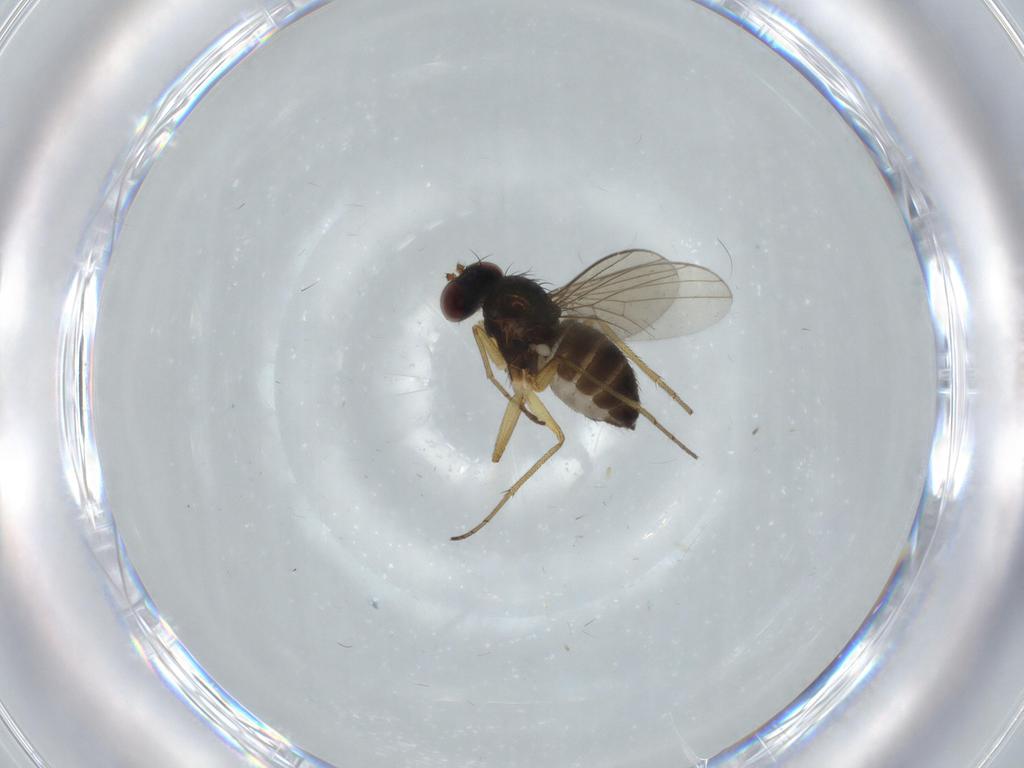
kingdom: Animalia
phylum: Arthropoda
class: Insecta
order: Diptera
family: Dolichopodidae
